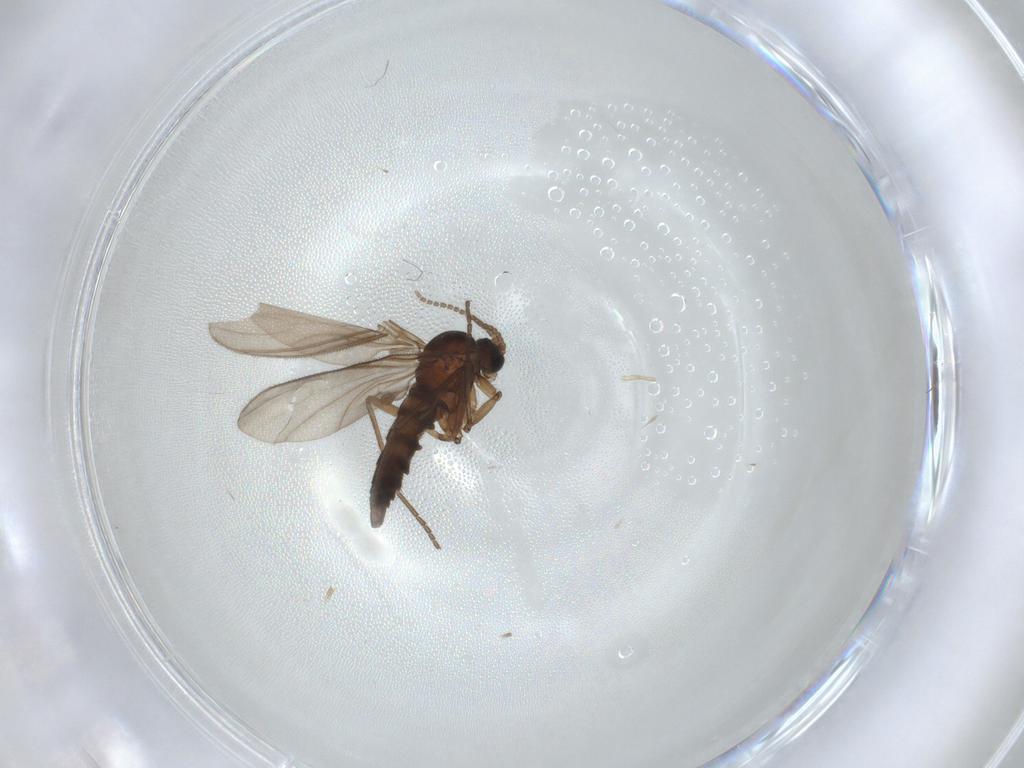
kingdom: Animalia
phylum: Arthropoda
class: Insecta
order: Diptera
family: Sciaridae
